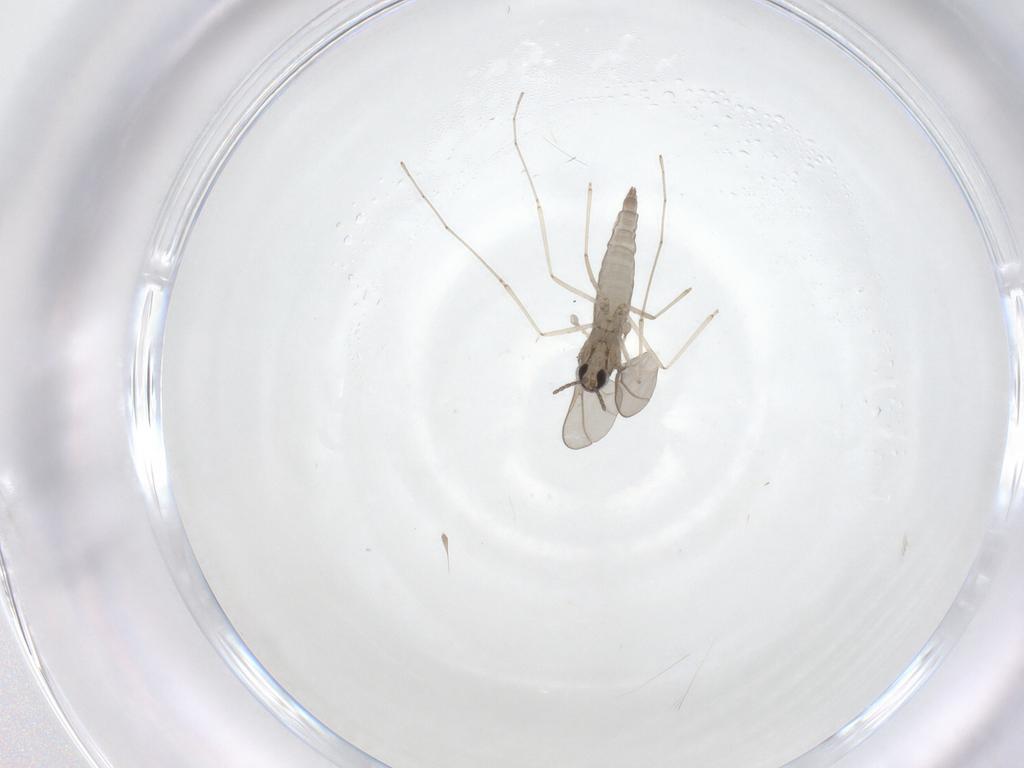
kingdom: Animalia
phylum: Arthropoda
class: Insecta
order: Diptera
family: Cecidomyiidae
